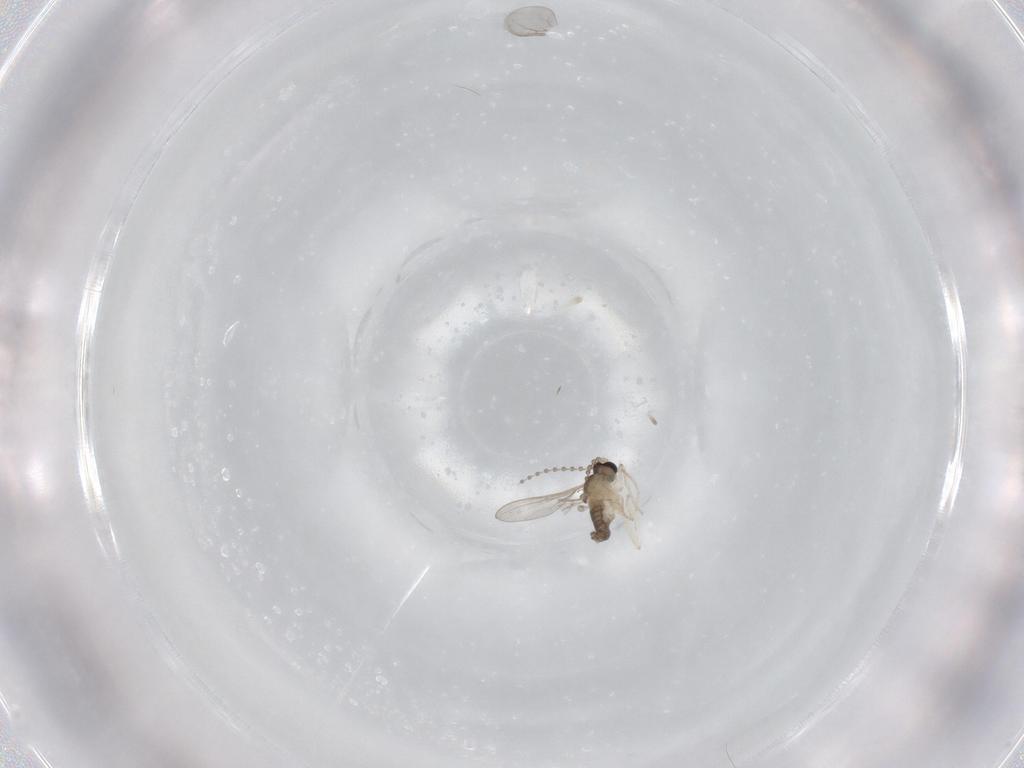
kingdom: Animalia
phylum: Arthropoda
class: Insecta
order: Diptera
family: Cecidomyiidae
